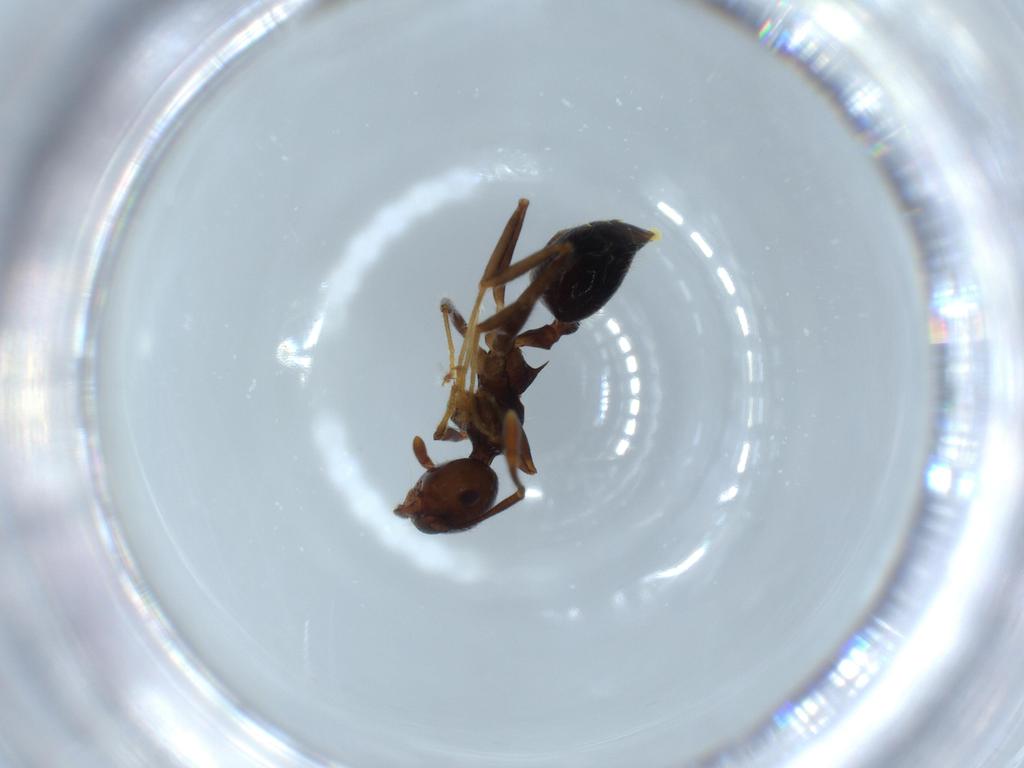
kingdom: Animalia
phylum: Arthropoda
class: Insecta
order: Hymenoptera
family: Formicidae
